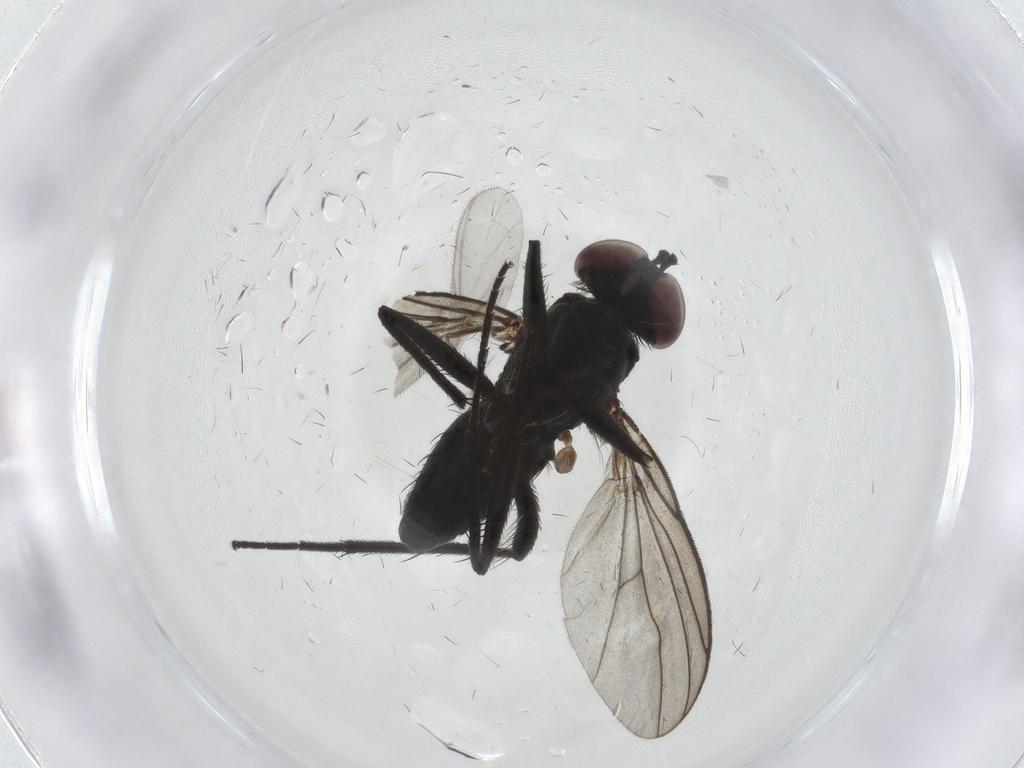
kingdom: Animalia
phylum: Arthropoda
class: Insecta
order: Diptera
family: Dolichopodidae
